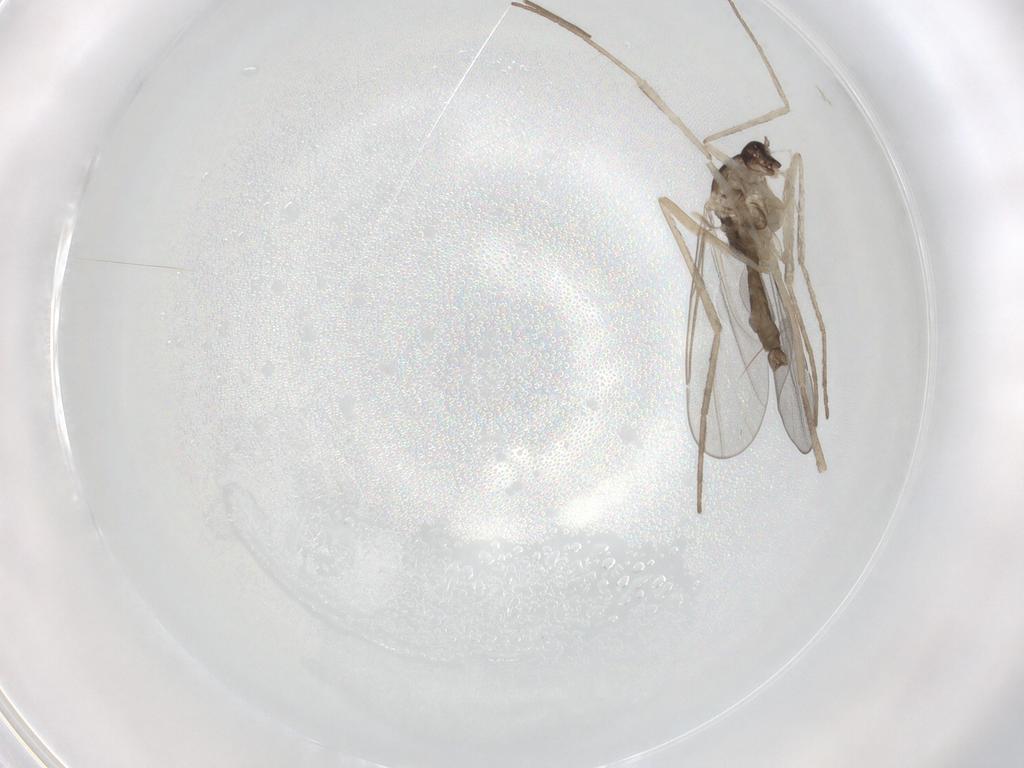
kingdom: Animalia
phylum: Arthropoda
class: Insecta
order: Diptera
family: Cecidomyiidae
